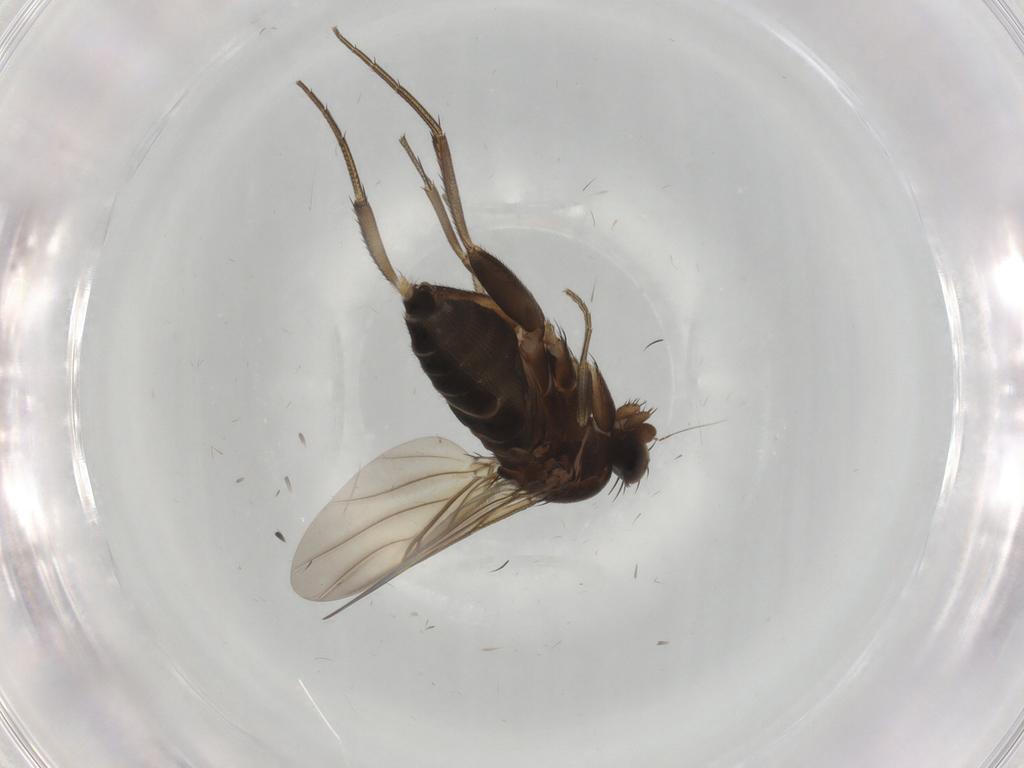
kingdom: Animalia
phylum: Arthropoda
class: Insecta
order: Diptera
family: Phoridae
